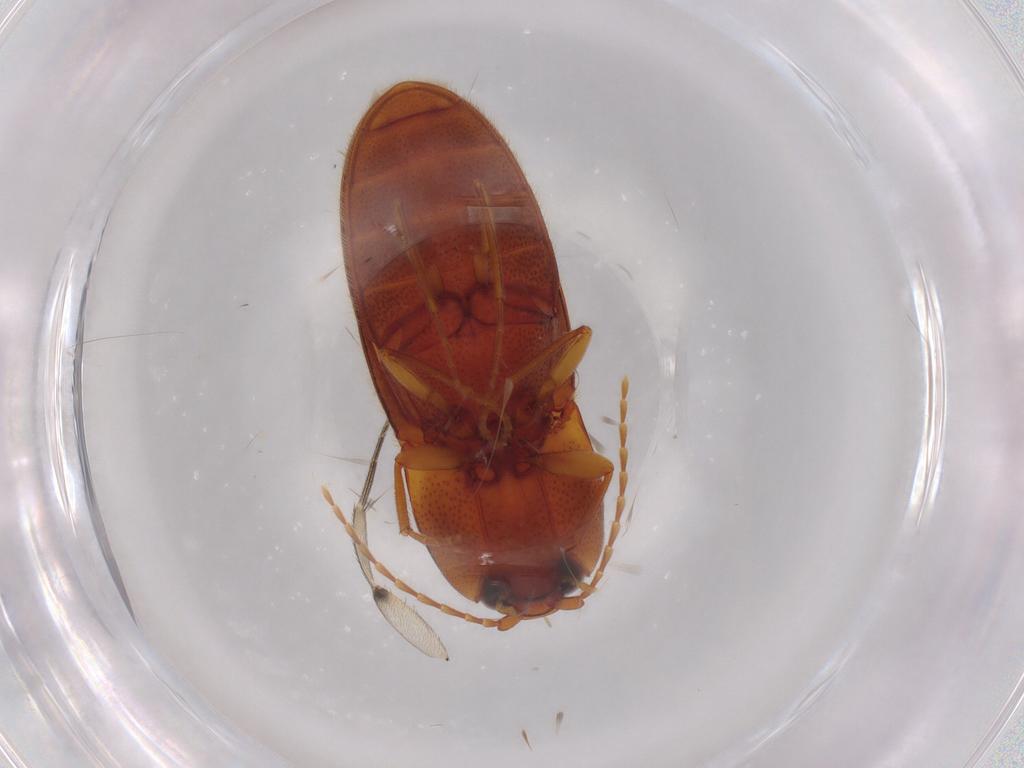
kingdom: Animalia
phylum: Arthropoda
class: Insecta
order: Coleoptera
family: Elateridae
